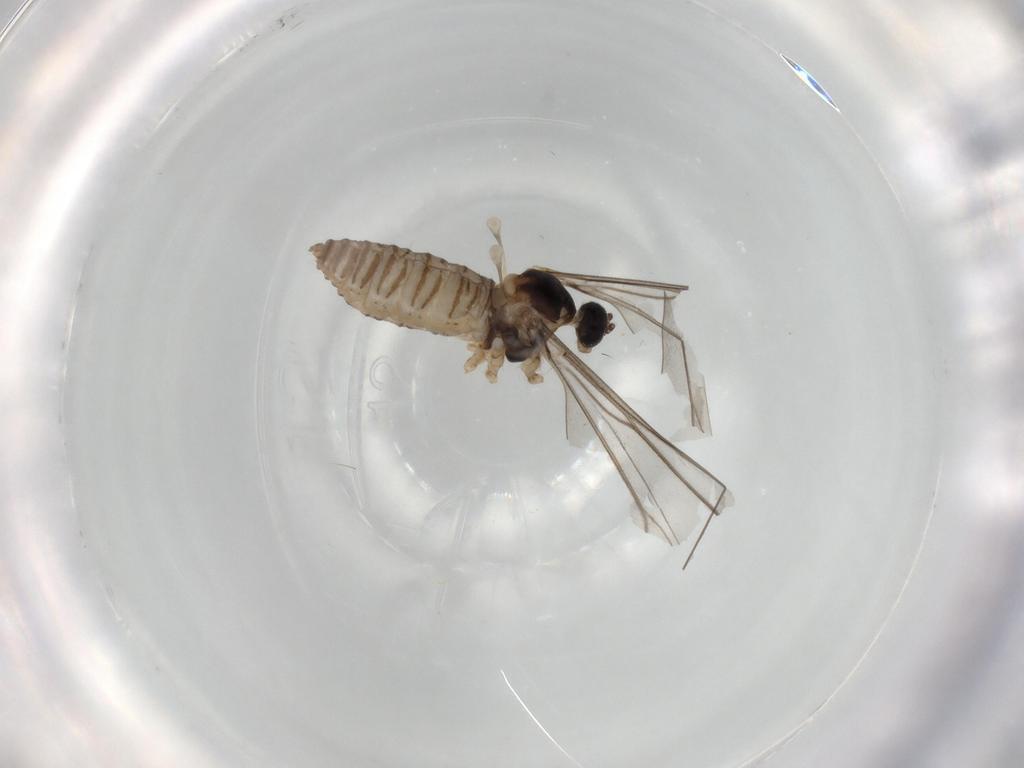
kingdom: Animalia
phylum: Arthropoda
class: Insecta
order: Diptera
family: Cecidomyiidae
